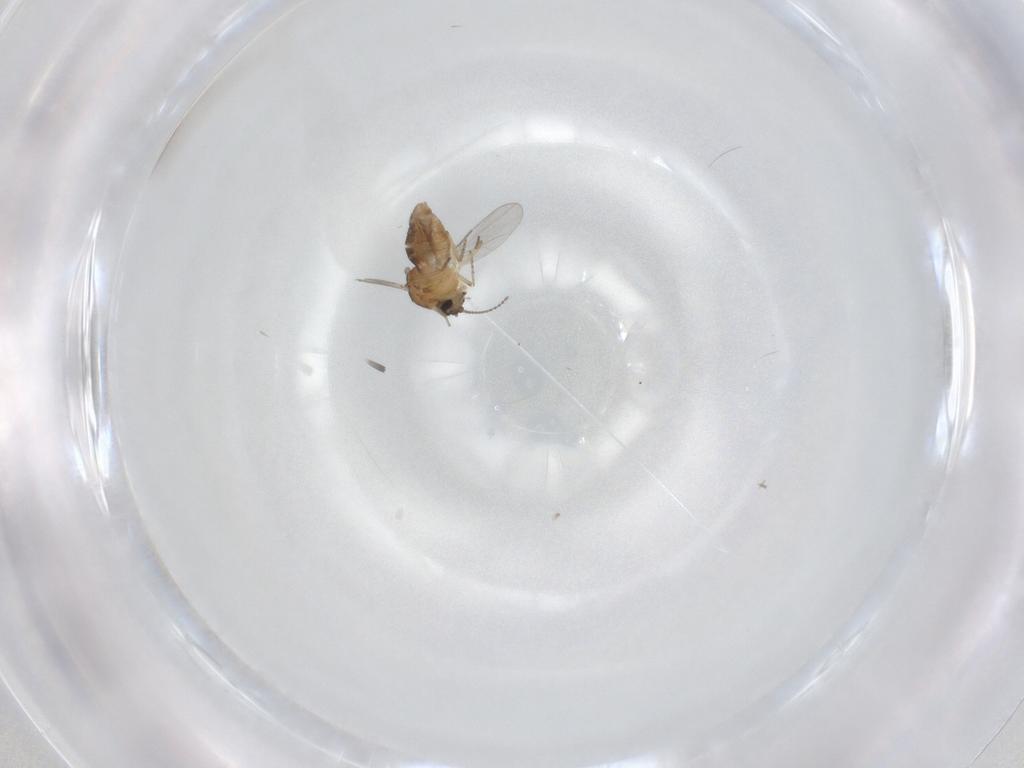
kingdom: Animalia
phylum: Arthropoda
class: Insecta
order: Diptera
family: Ceratopogonidae
